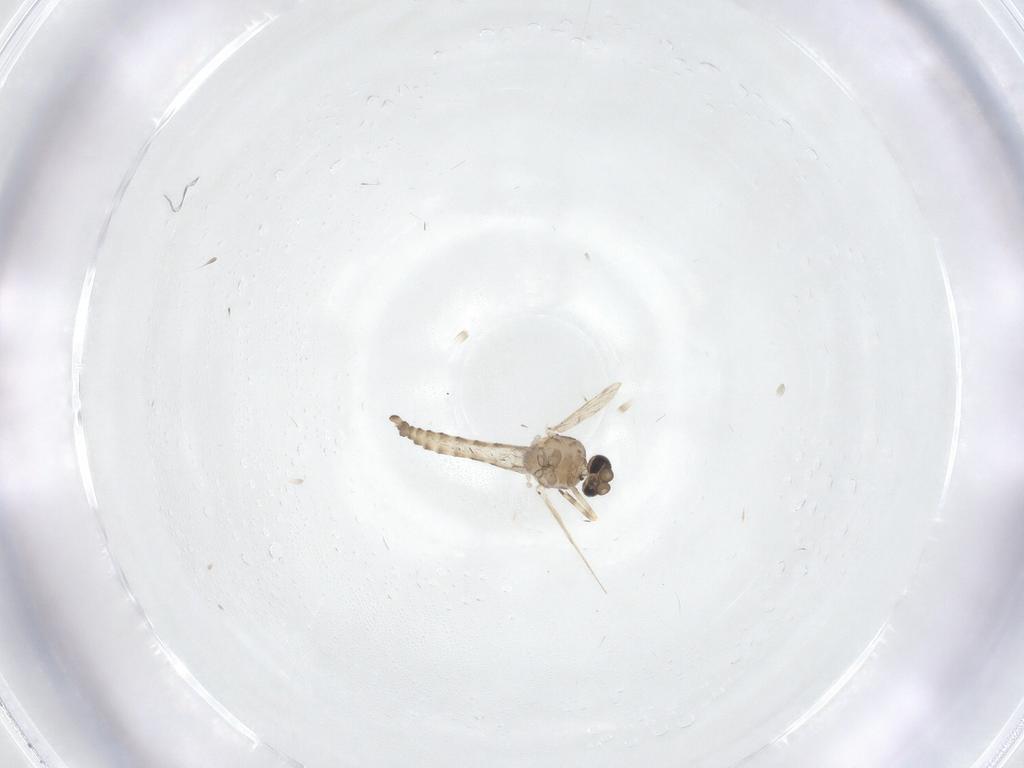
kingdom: Animalia
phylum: Arthropoda
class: Insecta
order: Diptera
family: Ceratopogonidae
